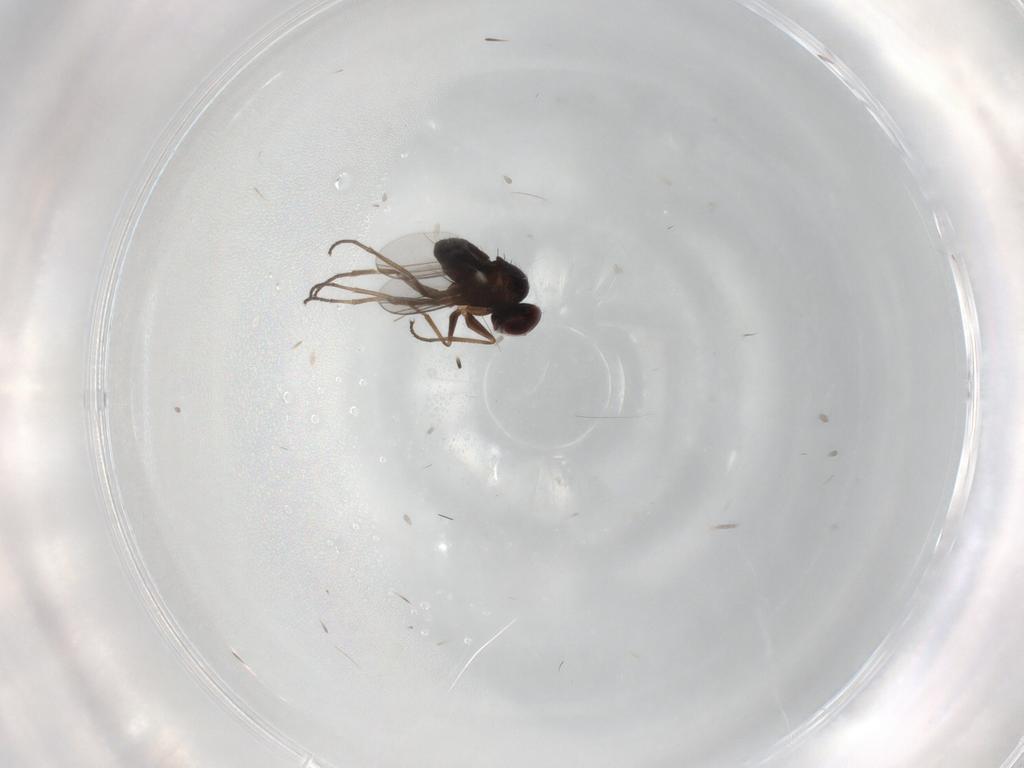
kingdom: Animalia
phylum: Arthropoda
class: Insecta
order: Diptera
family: Dolichopodidae
